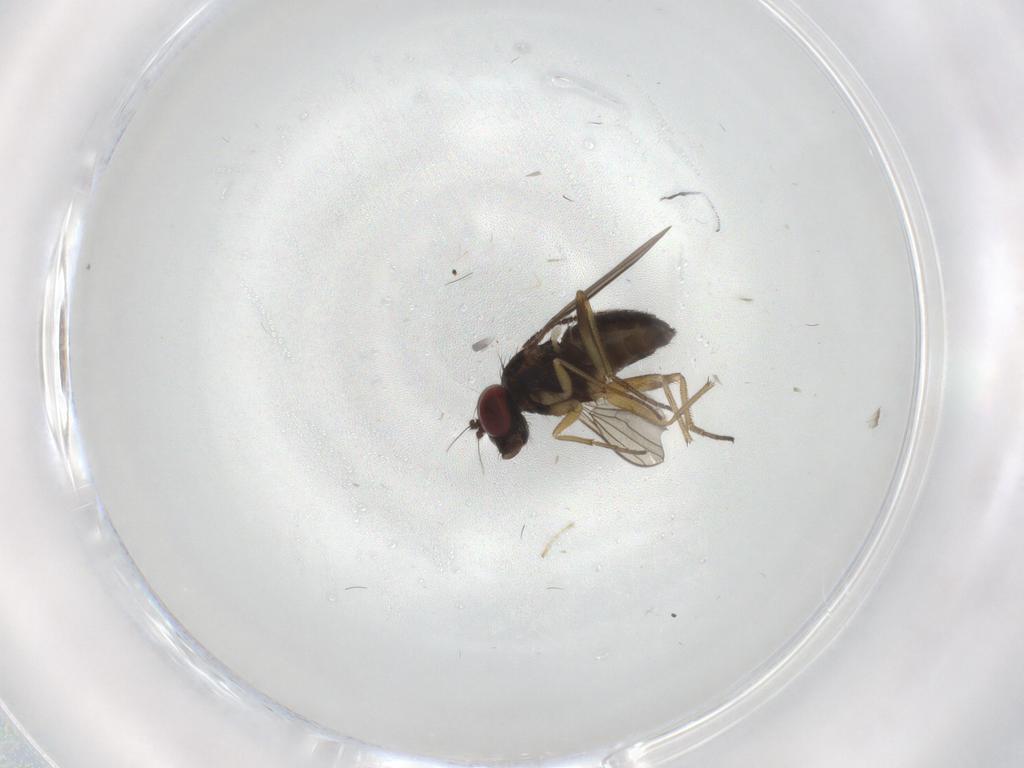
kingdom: Animalia
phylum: Arthropoda
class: Insecta
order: Diptera
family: Dolichopodidae
